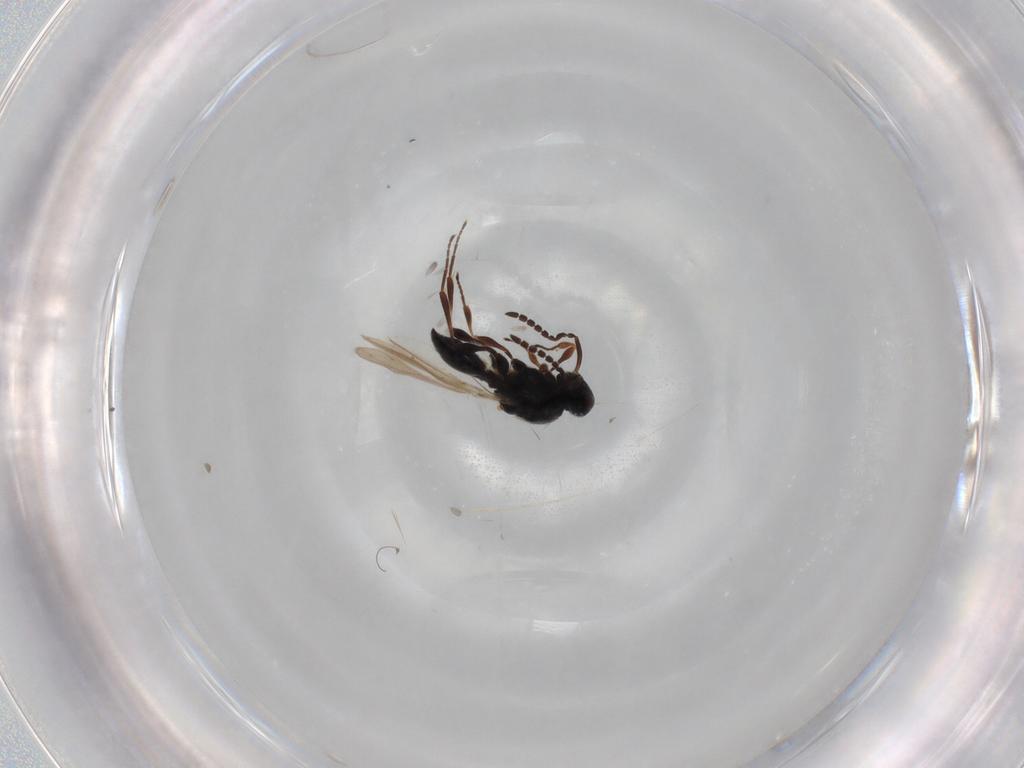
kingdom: Animalia
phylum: Arthropoda
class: Insecta
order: Hymenoptera
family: Platygastridae
